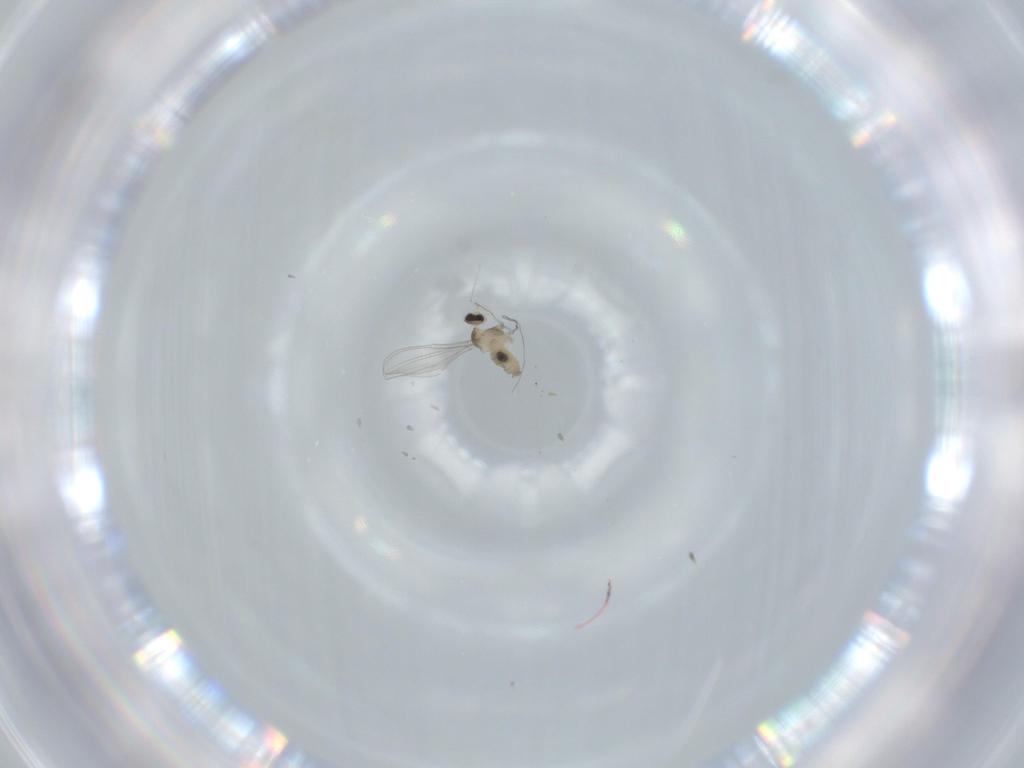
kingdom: Animalia
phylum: Arthropoda
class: Insecta
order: Diptera
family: Cecidomyiidae
